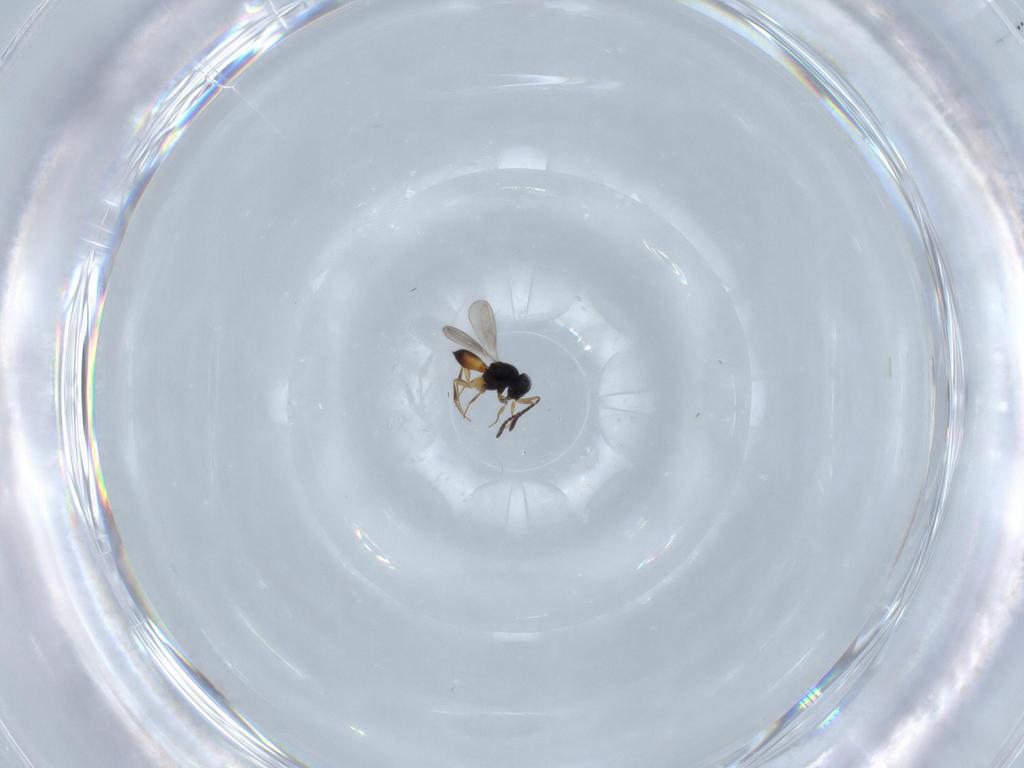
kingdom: Animalia
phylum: Arthropoda
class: Insecta
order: Hymenoptera
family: Scelionidae
